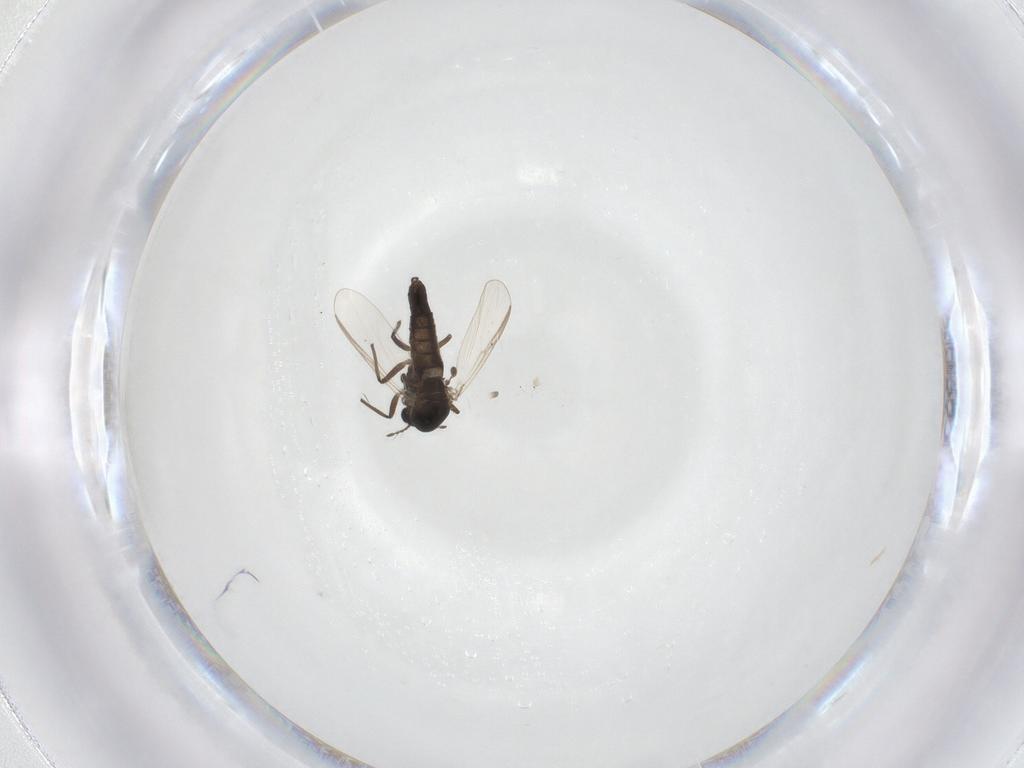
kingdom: Animalia
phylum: Arthropoda
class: Insecta
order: Diptera
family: Chironomidae
